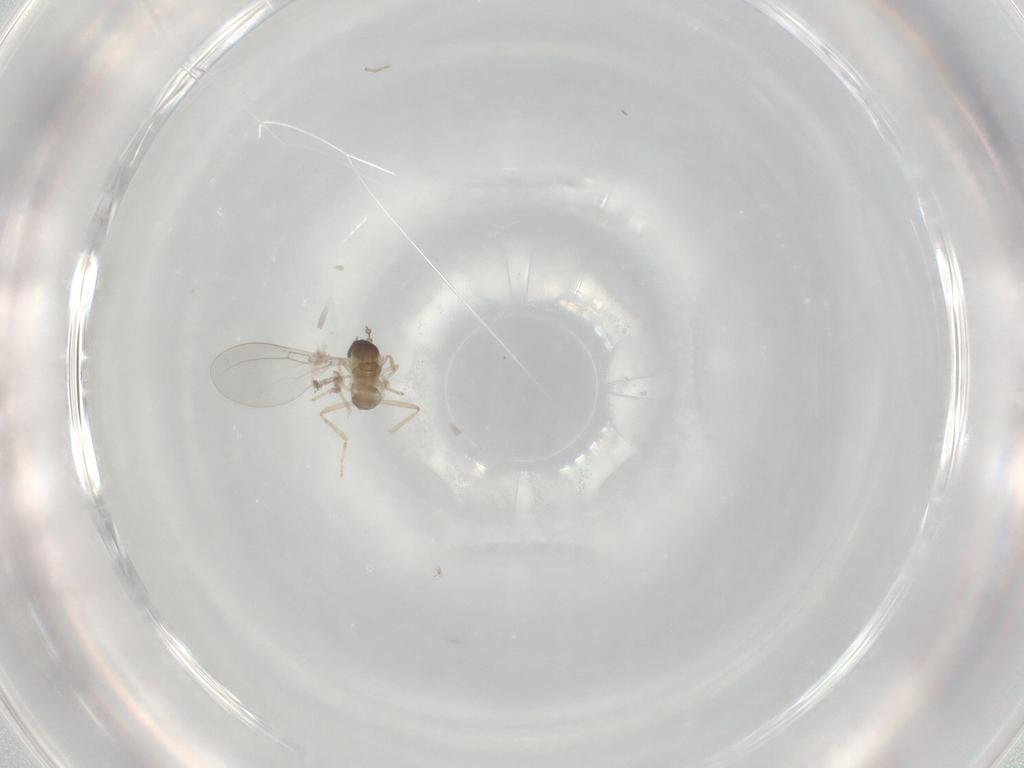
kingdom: Animalia
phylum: Arthropoda
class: Insecta
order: Diptera
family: Cecidomyiidae
